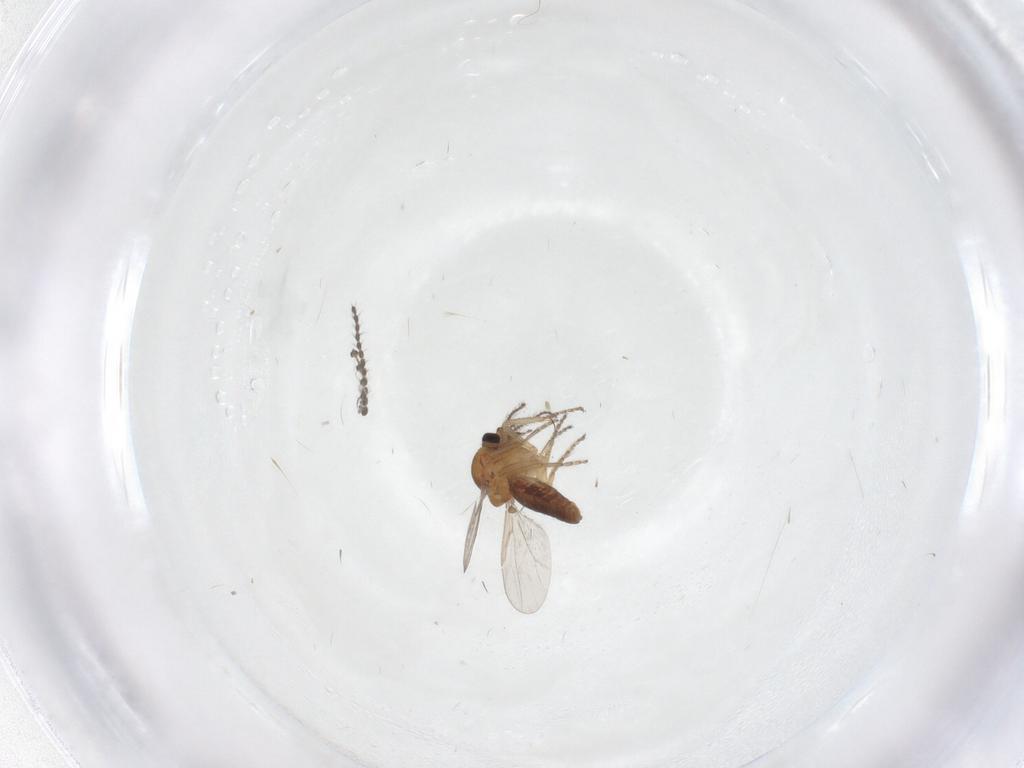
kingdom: Animalia
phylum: Arthropoda
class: Insecta
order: Diptera
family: Ceratopogonidae
